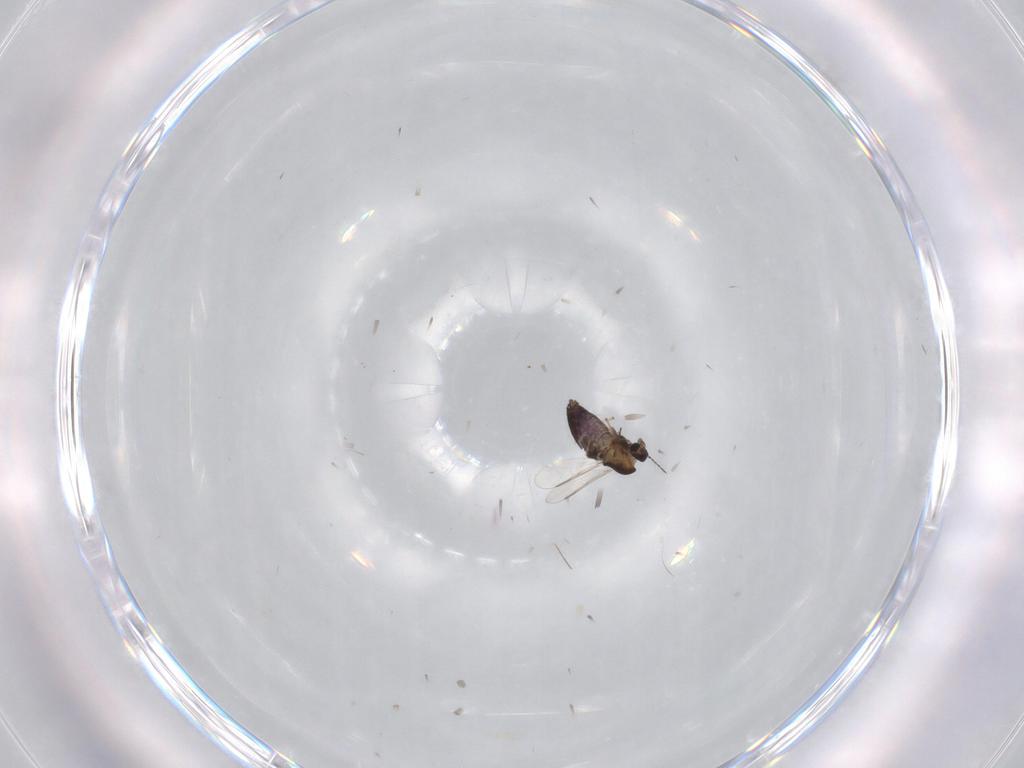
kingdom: Animalia
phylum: Arthropoda
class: Insecta
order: Diptera
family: Chironomidae
